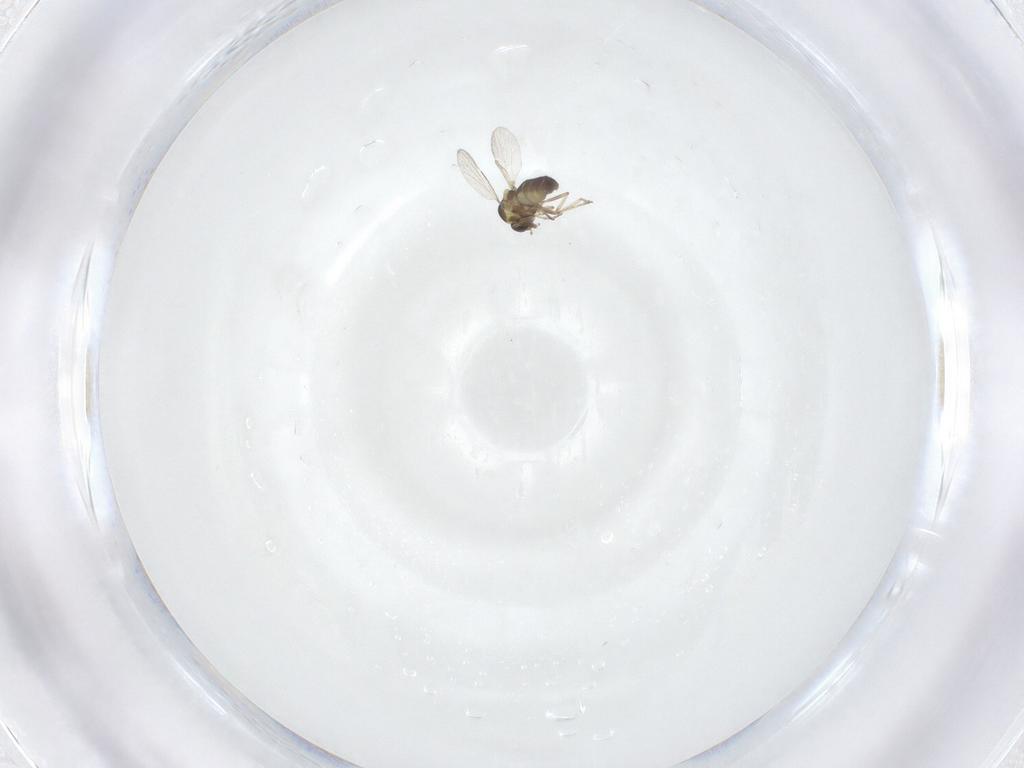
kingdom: Animalia
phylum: Arthropoda
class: Insecta
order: Diptera
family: Ceratopogonidae
